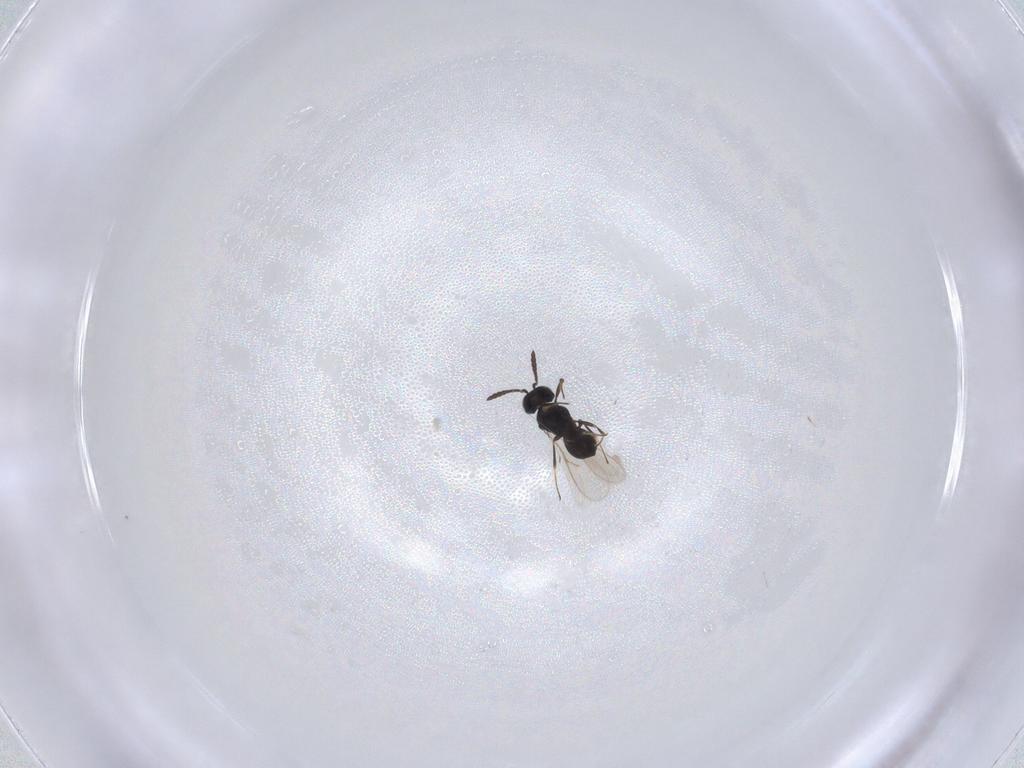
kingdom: Animalia
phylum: Arthropoda
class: Insecta
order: Hymenoptera
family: Scelionidae
